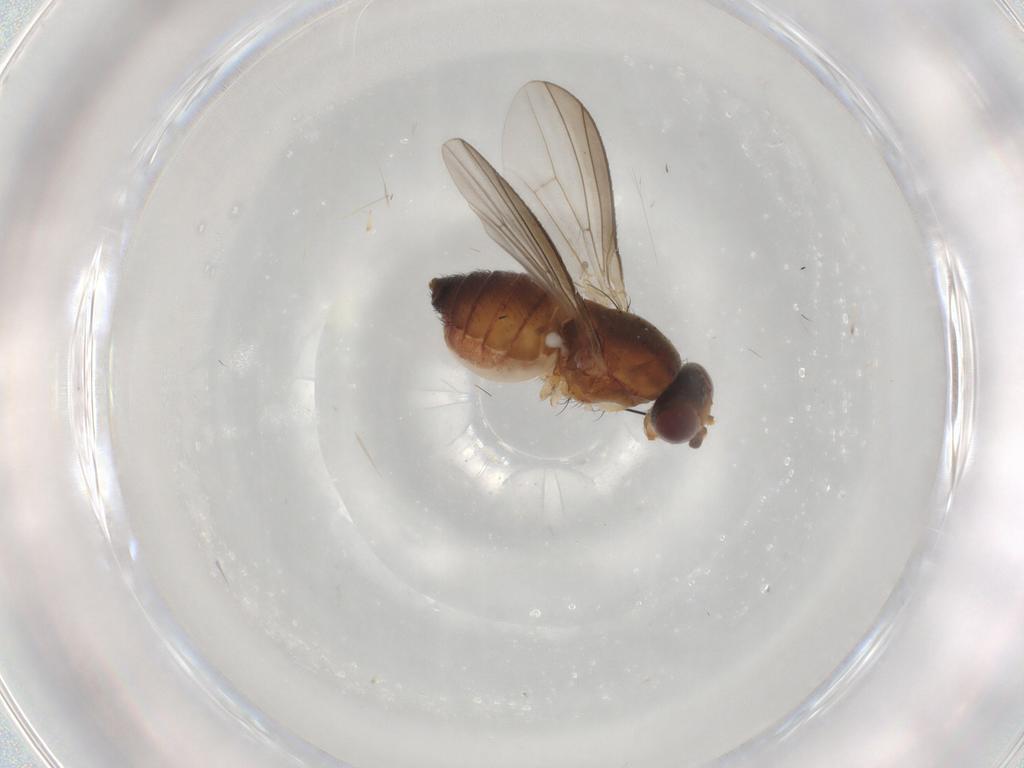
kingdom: Animalia
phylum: Arthropoda
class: Insecta
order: Diptera
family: Heleomyzidae
